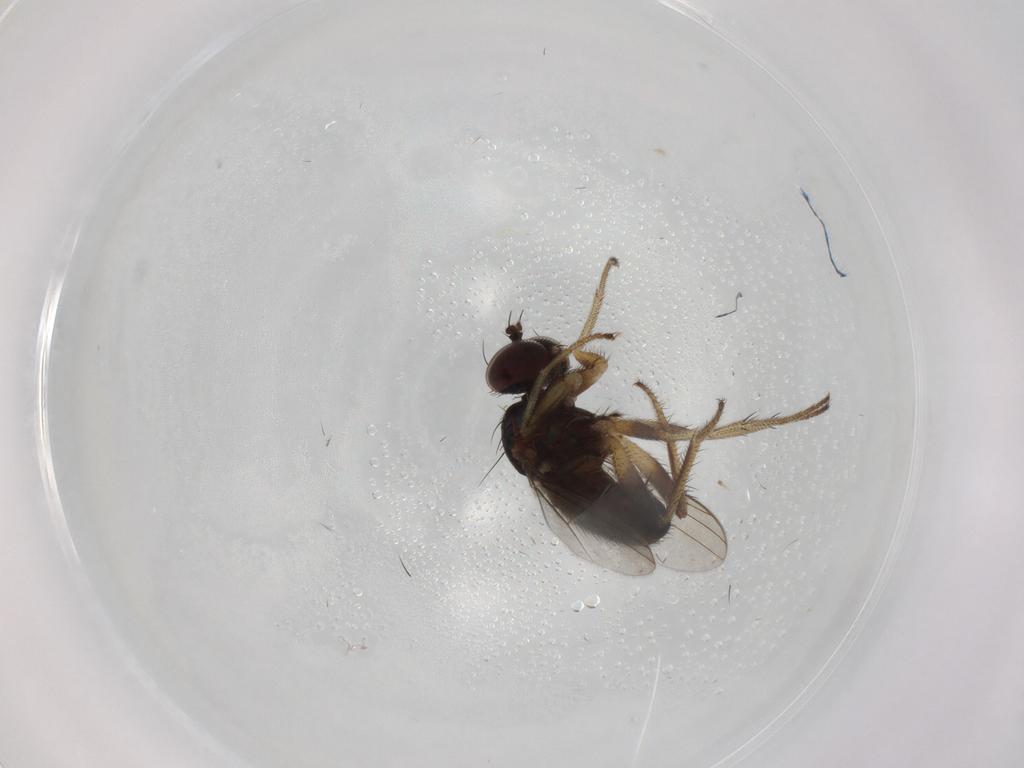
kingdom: Animalia
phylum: Arthropoda
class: Insecta
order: Diptera
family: Dolichopodidae
